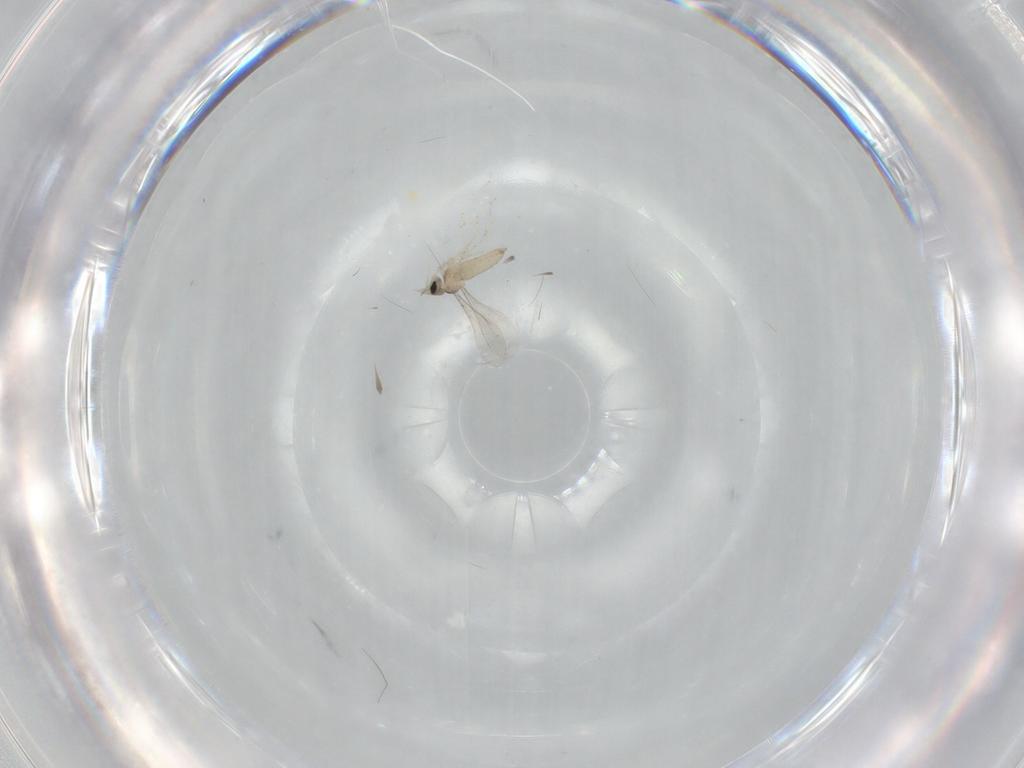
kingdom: Animalia
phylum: Arthropoda
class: Insecta
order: Diptera
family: Cecidomyiidae
